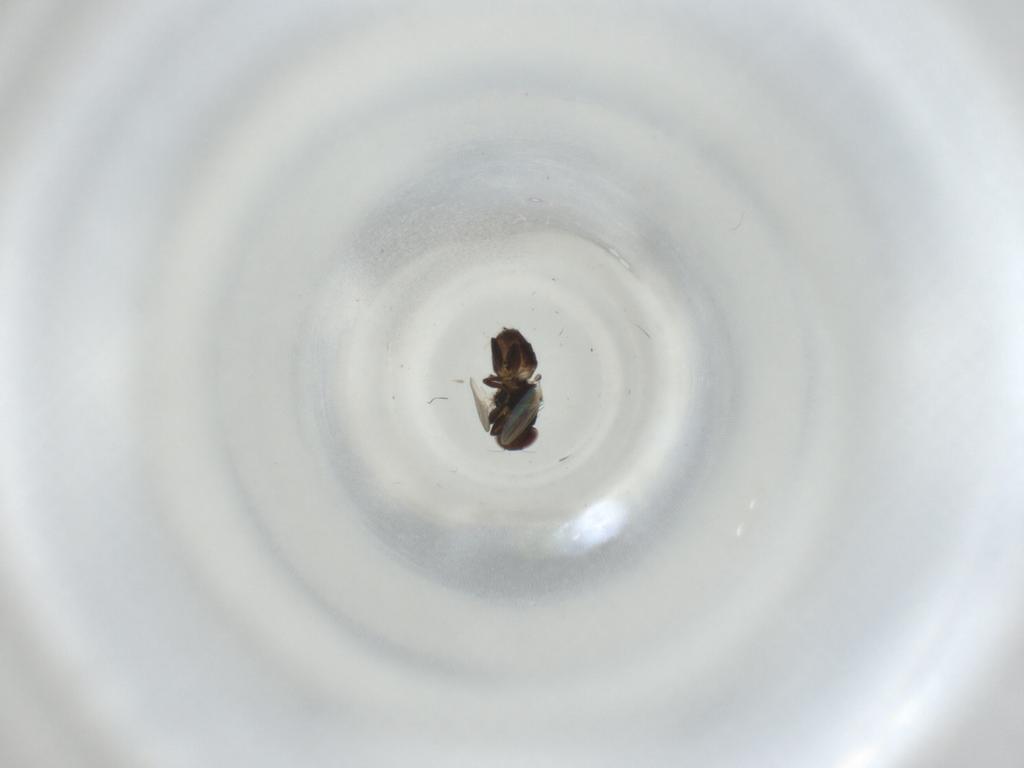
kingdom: Animalia
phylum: Arthropoda
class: Insecta
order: Diptera
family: Chloropidae
